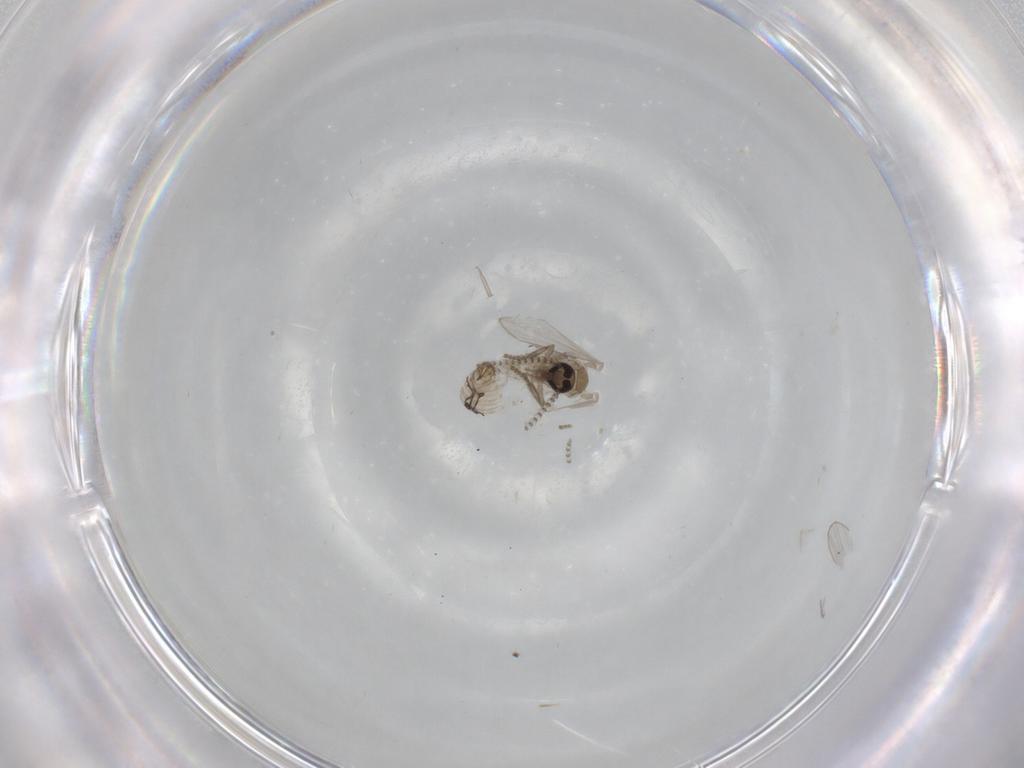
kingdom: Animalia
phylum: Arthropoda
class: Insecta
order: Diptera
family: Psychodidae
